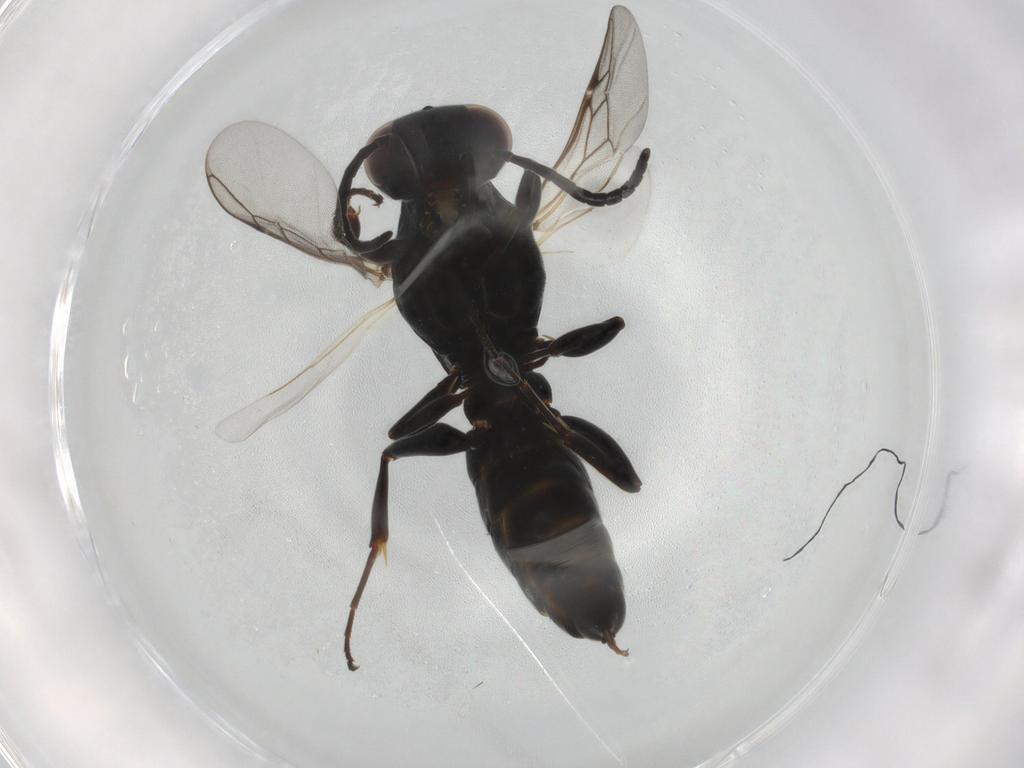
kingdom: Animalia
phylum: Arthropoda
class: Insecta
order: Hymenoptera
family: Crabronidae
